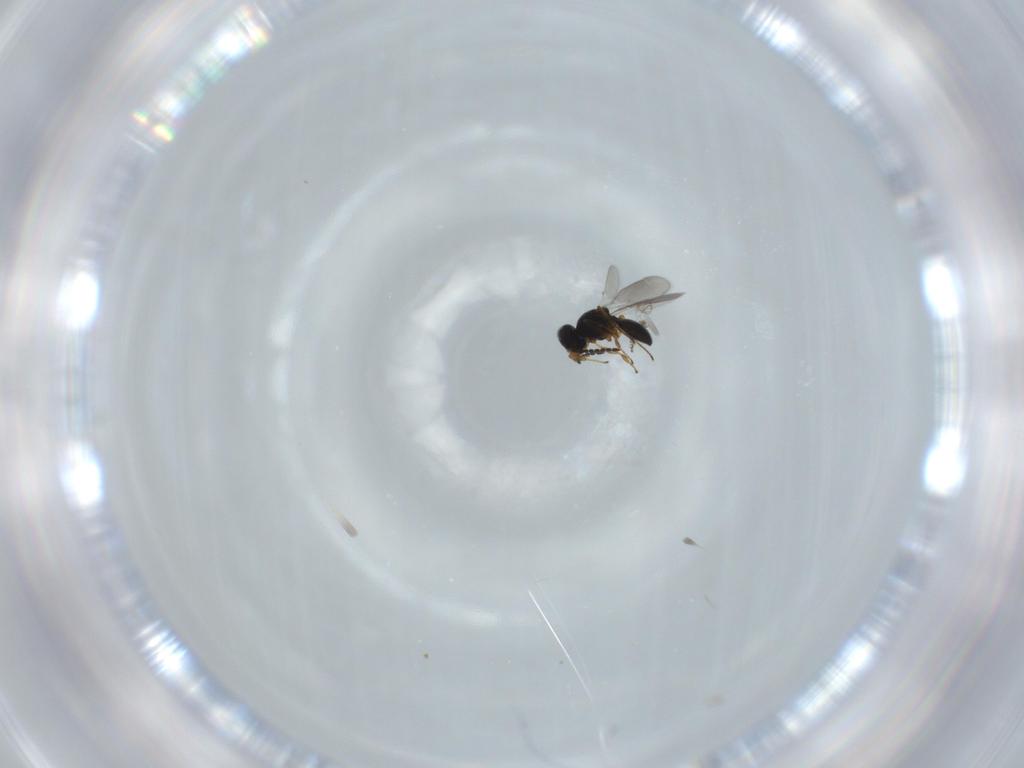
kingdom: Animalia
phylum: Arthropoda
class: Insecta
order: Hymenoptera
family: Platygastridae
